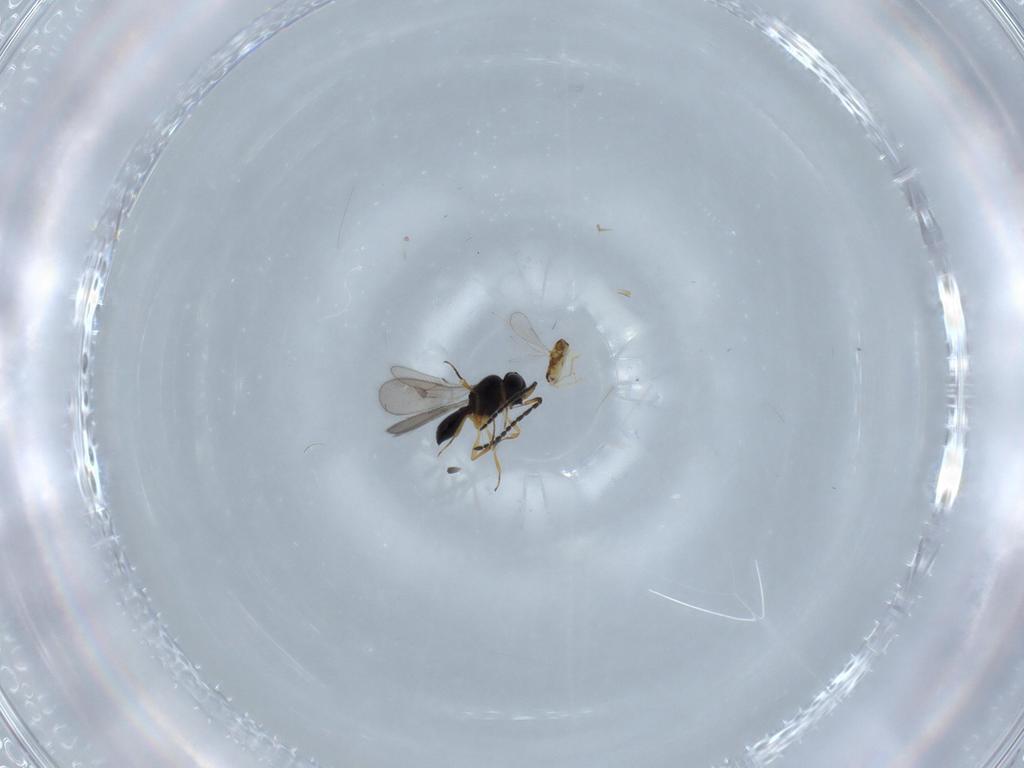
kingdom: Animalia
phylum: Arthropoda
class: Insecta
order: Hymenoptera
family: Scelionidae
